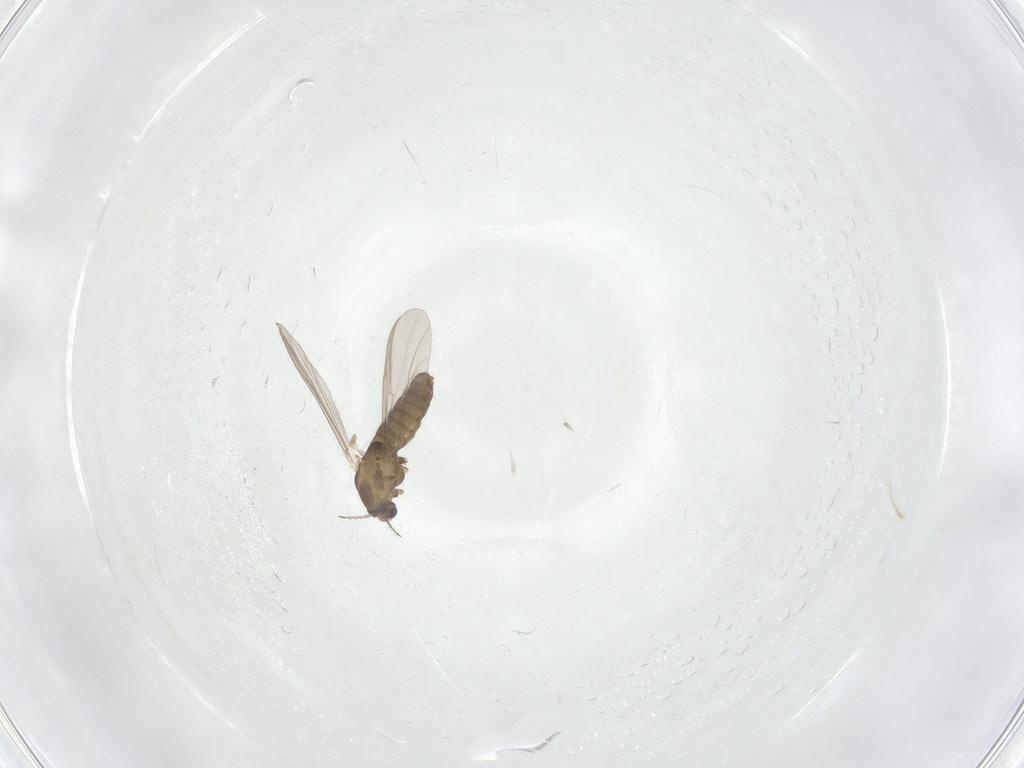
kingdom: Animalia
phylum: Arthropoda
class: Insecta
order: Diptera
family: Chironomidae
